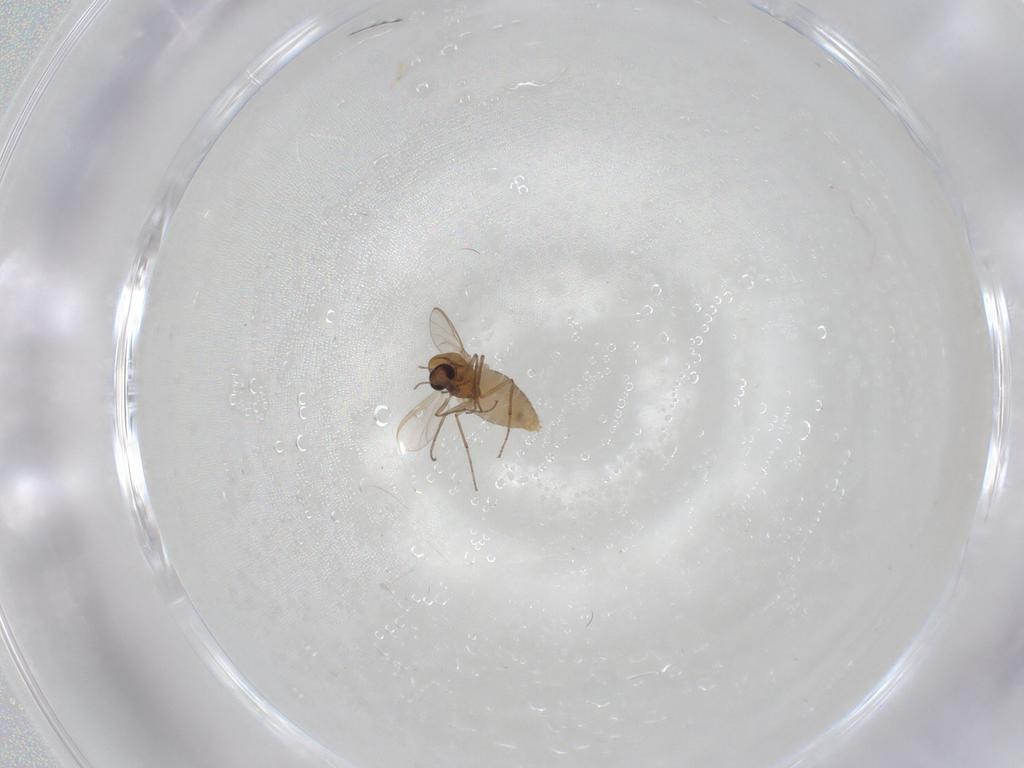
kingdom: Animalia
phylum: Arthropoda
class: Insecta
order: Diptera
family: Chironomidae
